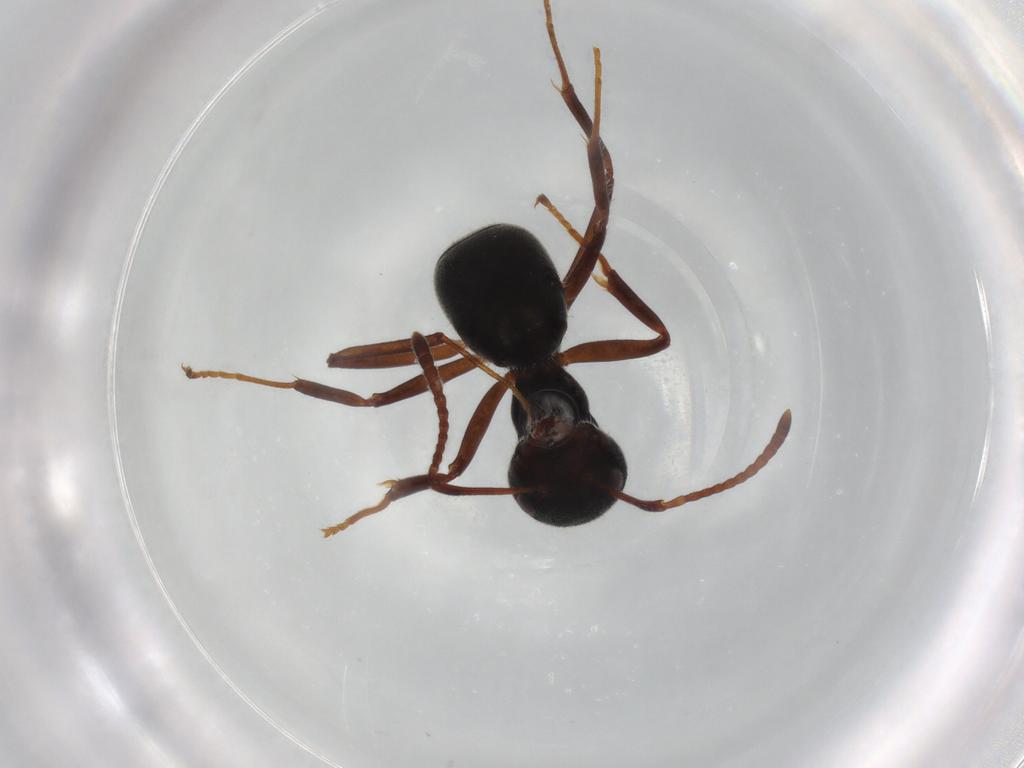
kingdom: Animalia
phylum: Arthropoda
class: Insecta
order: Hymenoptera
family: Formicidae
